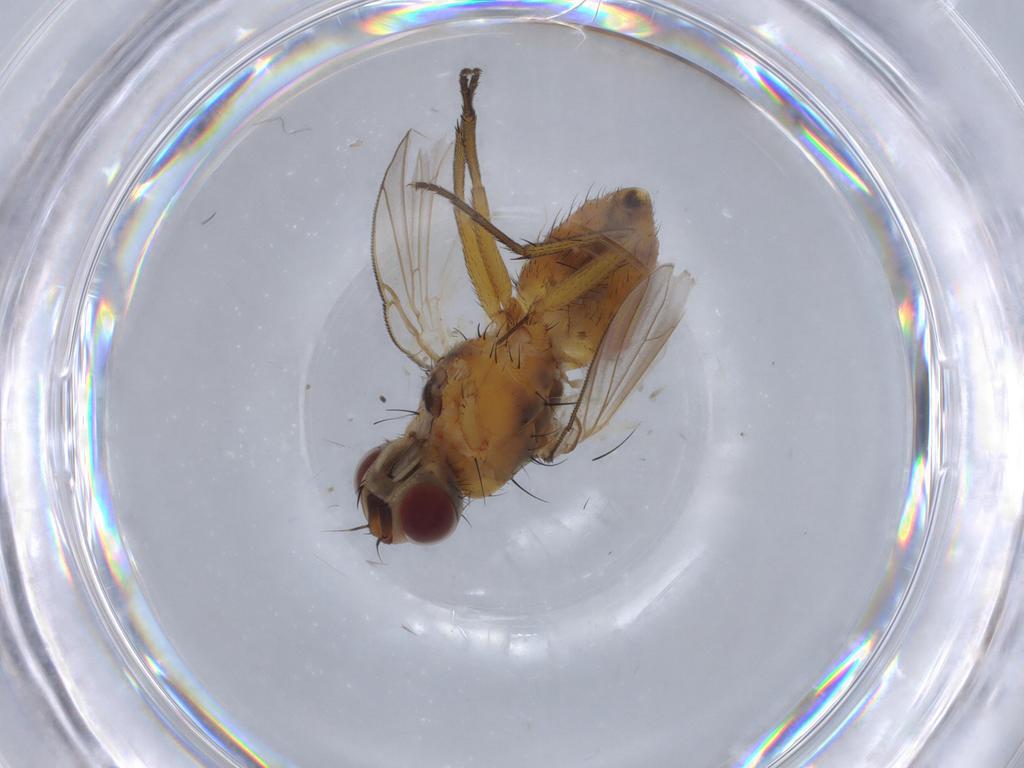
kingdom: Animalia
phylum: Arthropoda
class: Insecta
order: Diptera
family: Muscidae
